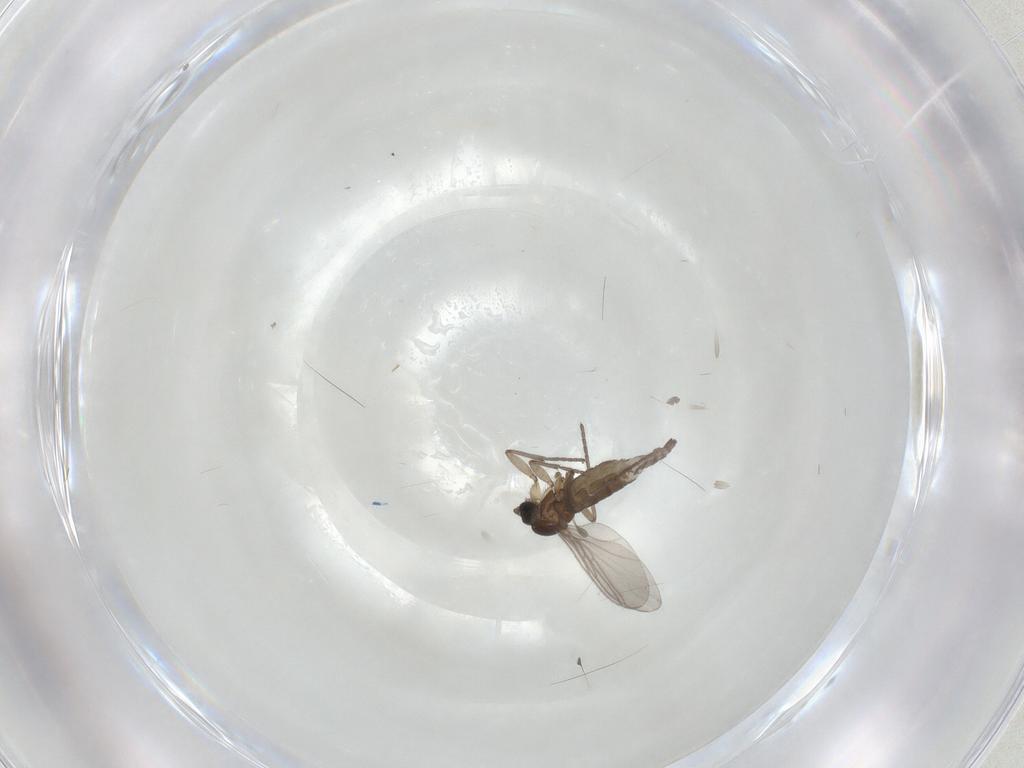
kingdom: Animalia
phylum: Arthropoda
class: Insecta
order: Diptera
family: Sciaridae
